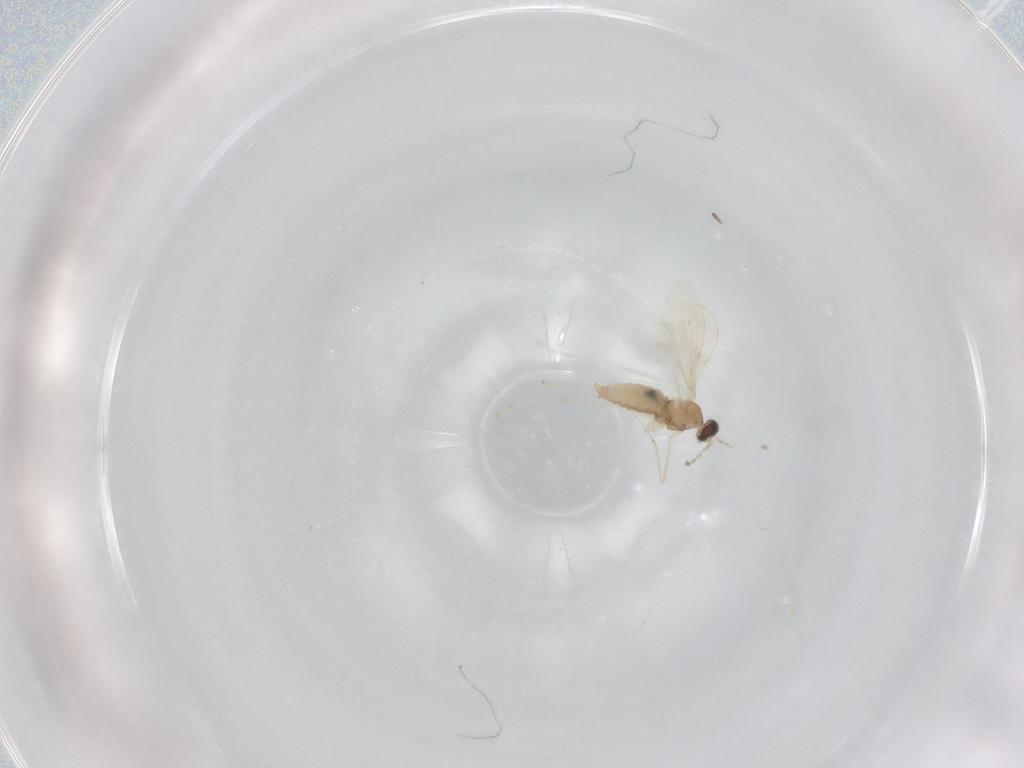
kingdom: Animalia
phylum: Arthropoda
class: Insecta
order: Diptera
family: Cecidomyiidae
